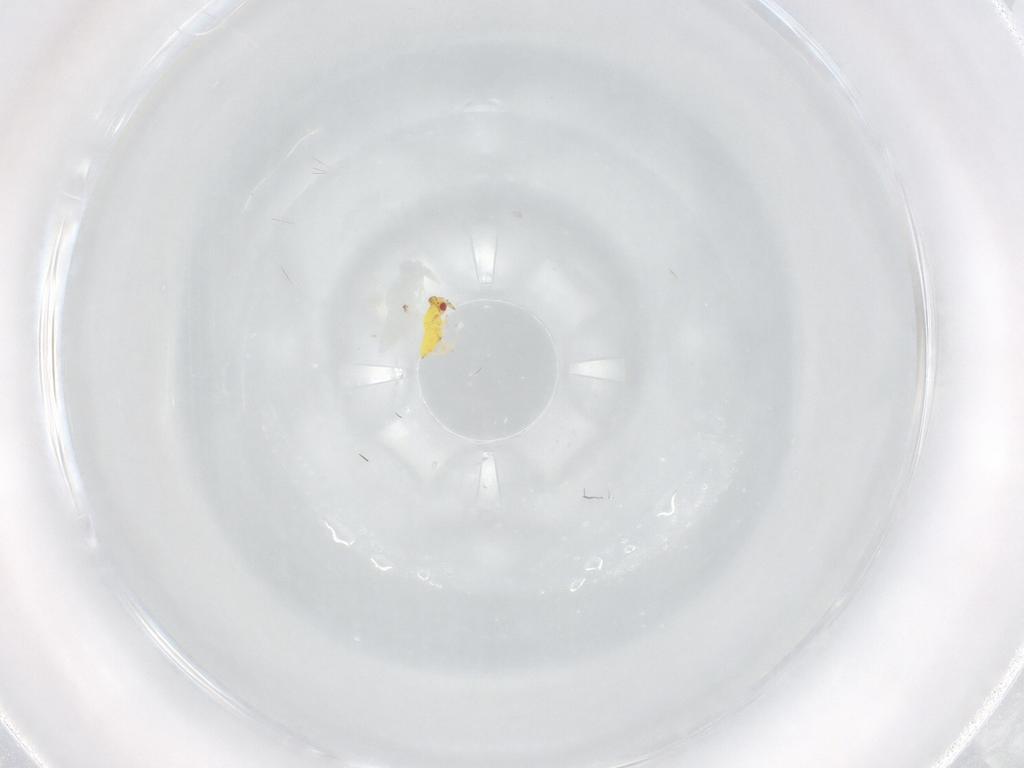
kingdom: Animalia
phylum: Arthropoda
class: Insecta
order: Hymenoptera
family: Trichogrammatidae
